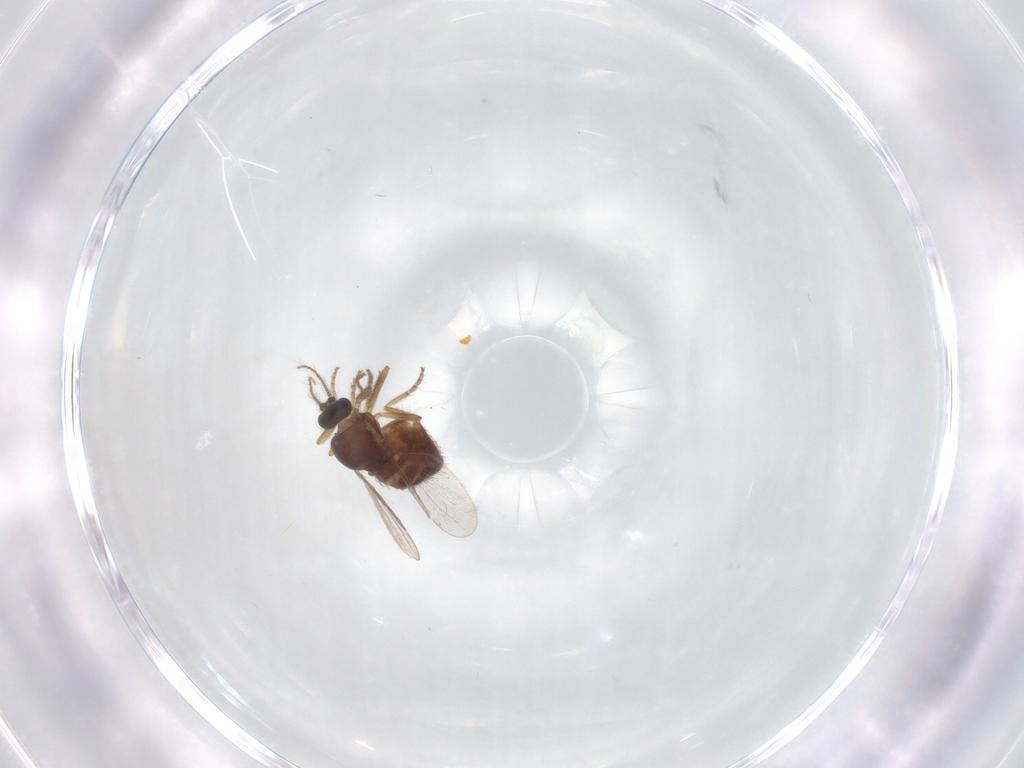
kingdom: Animalia
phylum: Arthropoda
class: Insecta
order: Diptera
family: Ceratopogonidae
